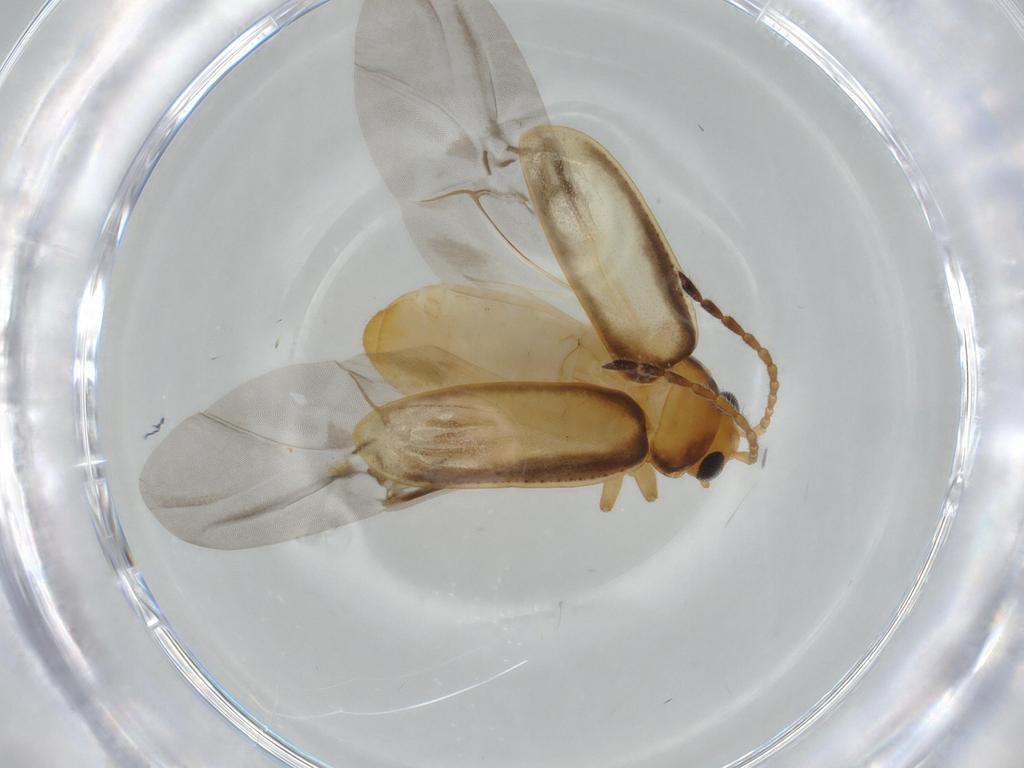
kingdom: Animalia
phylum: Arthropoda
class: Insecta
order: Coleoptera
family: Chrysomelidae
